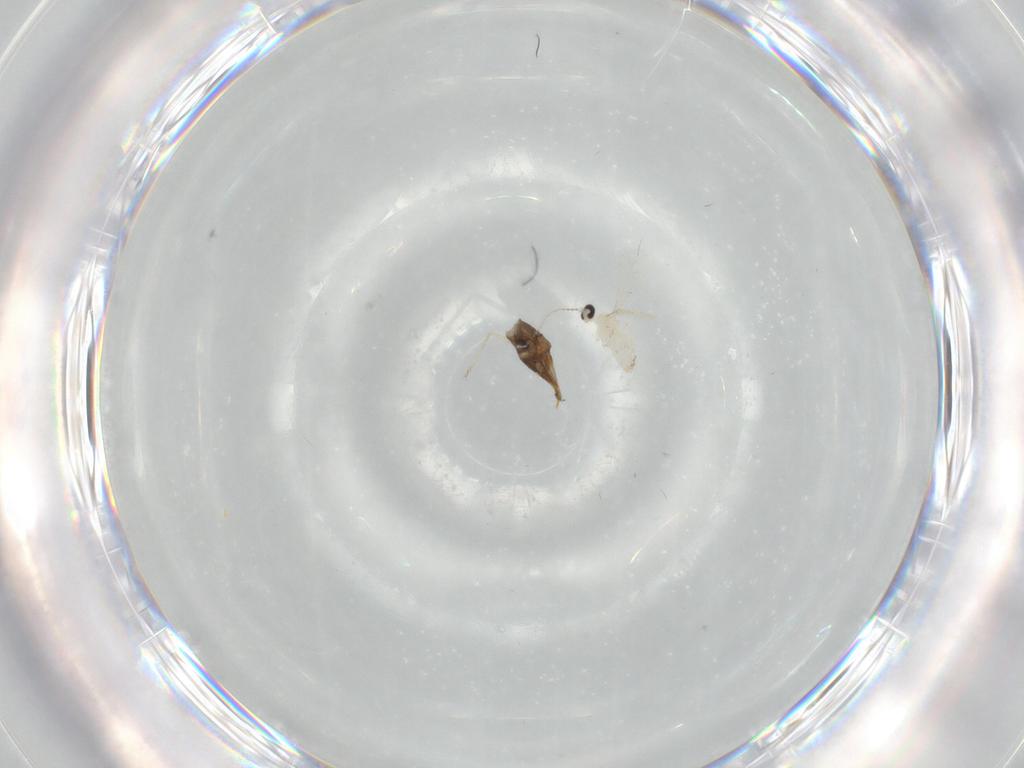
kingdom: Animalia
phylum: Arthropoda
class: Insecta
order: Diptera
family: Cecidomyiidae
